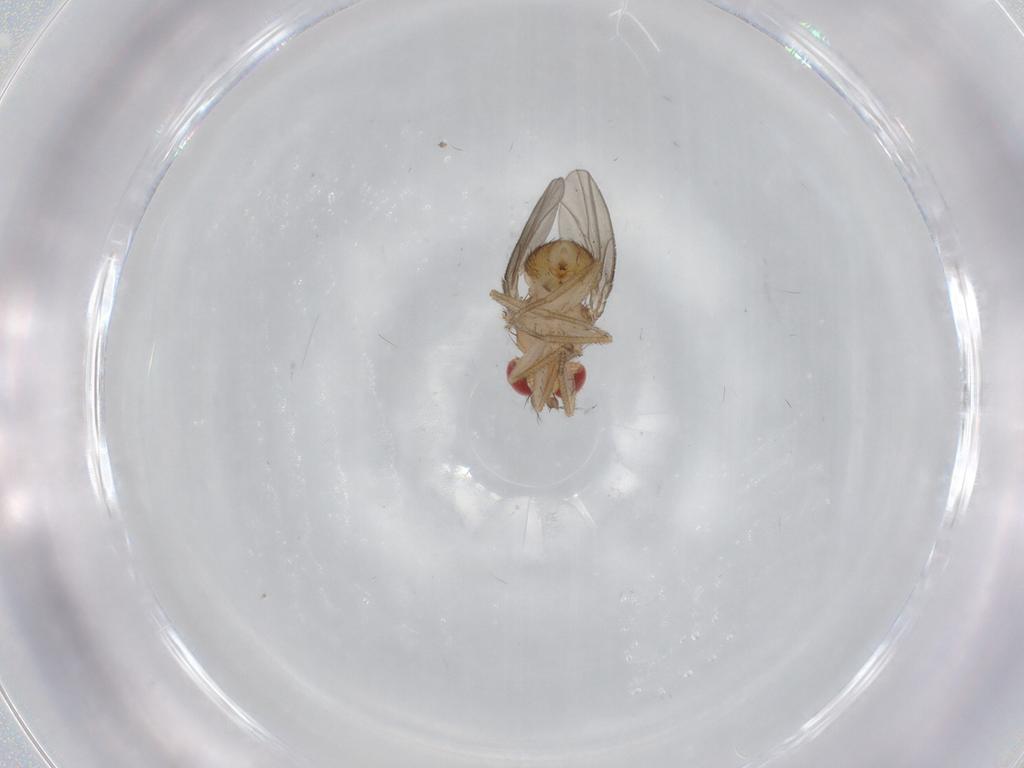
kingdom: Animalia
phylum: Arthropoda
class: Insecta
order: Diptera
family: Drosophilidae
